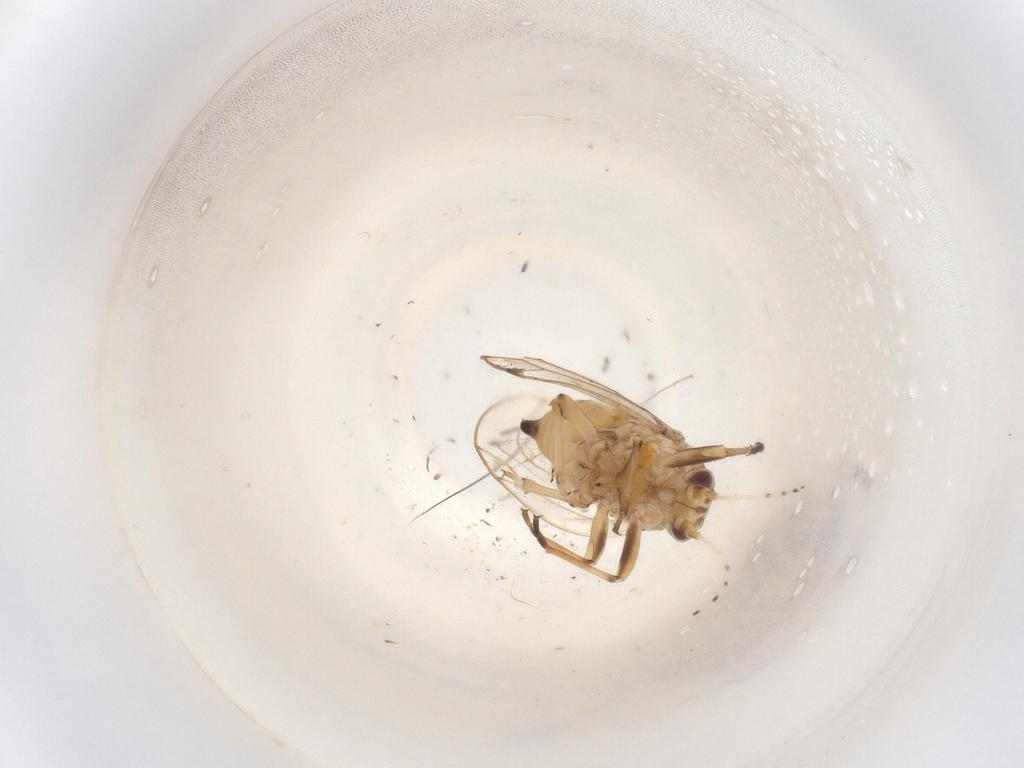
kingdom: Animalia
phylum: Arthropoda
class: Insecta
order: Diptera
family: Cecidomyiidae
